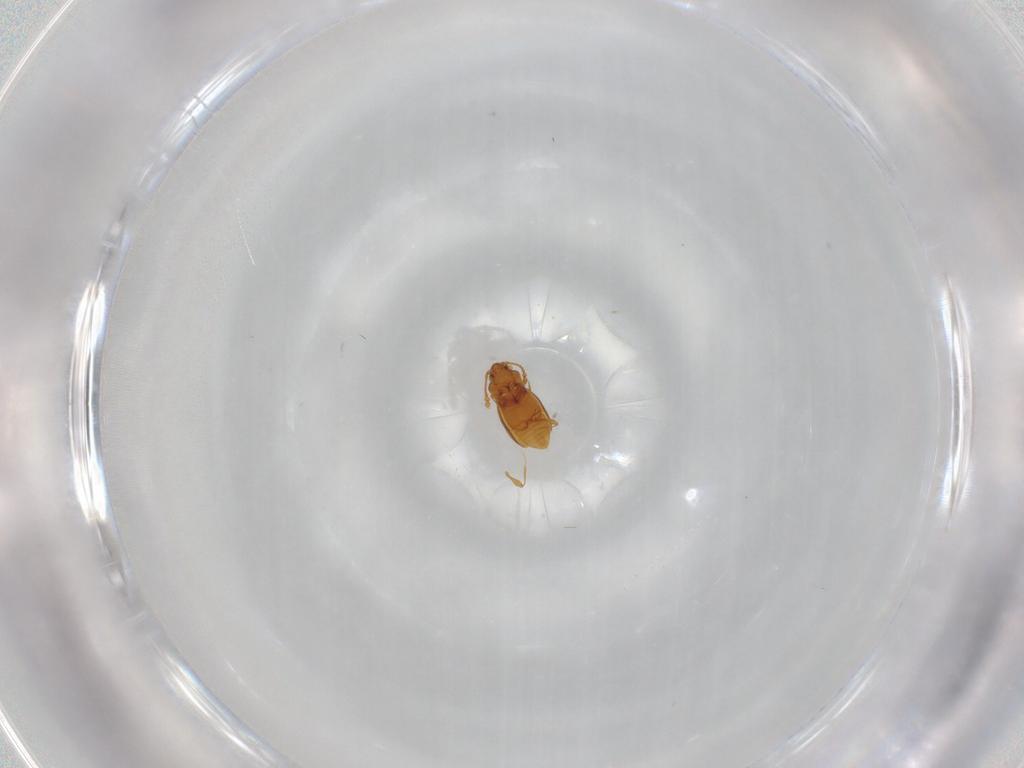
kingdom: Animalia
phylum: Arthropoda
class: Insecta
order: Coleoptera
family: Staphylinidae
